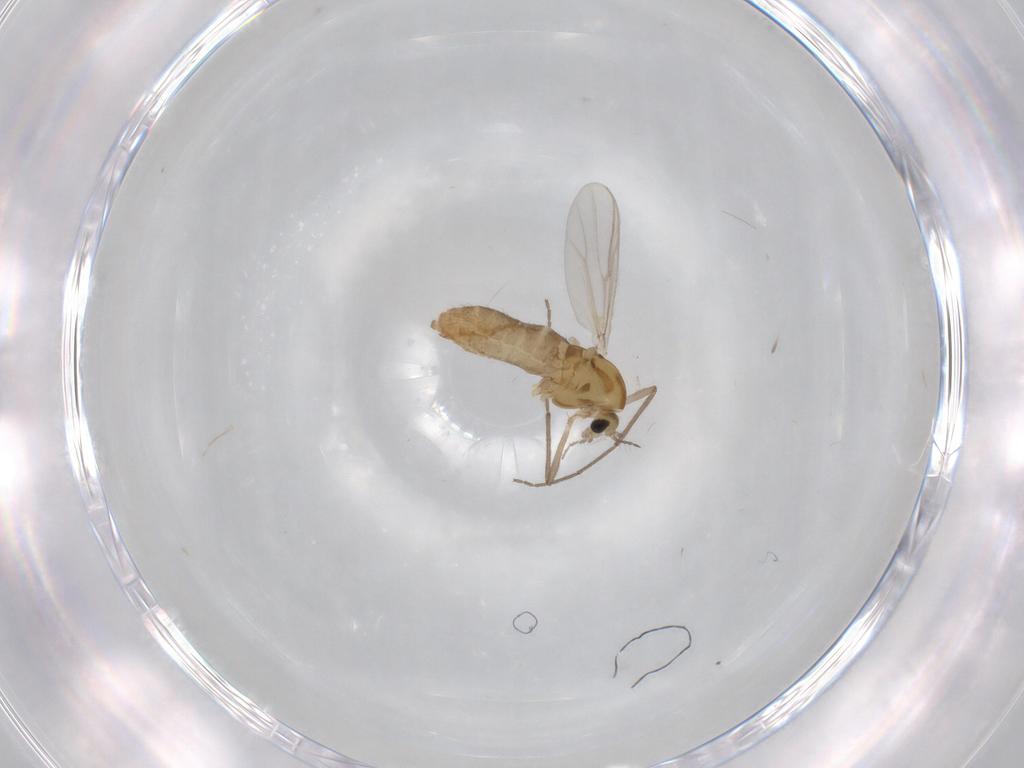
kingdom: Animalia
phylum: Arthropoda
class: Insecta
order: Diptera
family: Chironomidae
